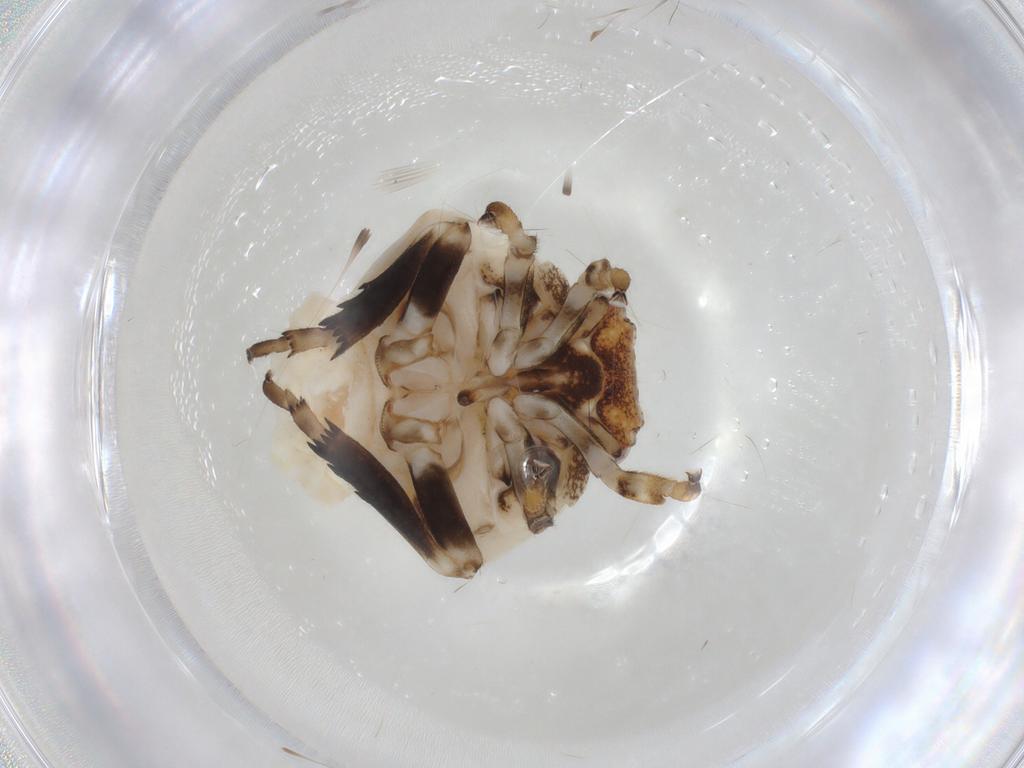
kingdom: Animalia
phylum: Arthropoda
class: Insecta
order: Hemiptera
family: Ricaniidae
